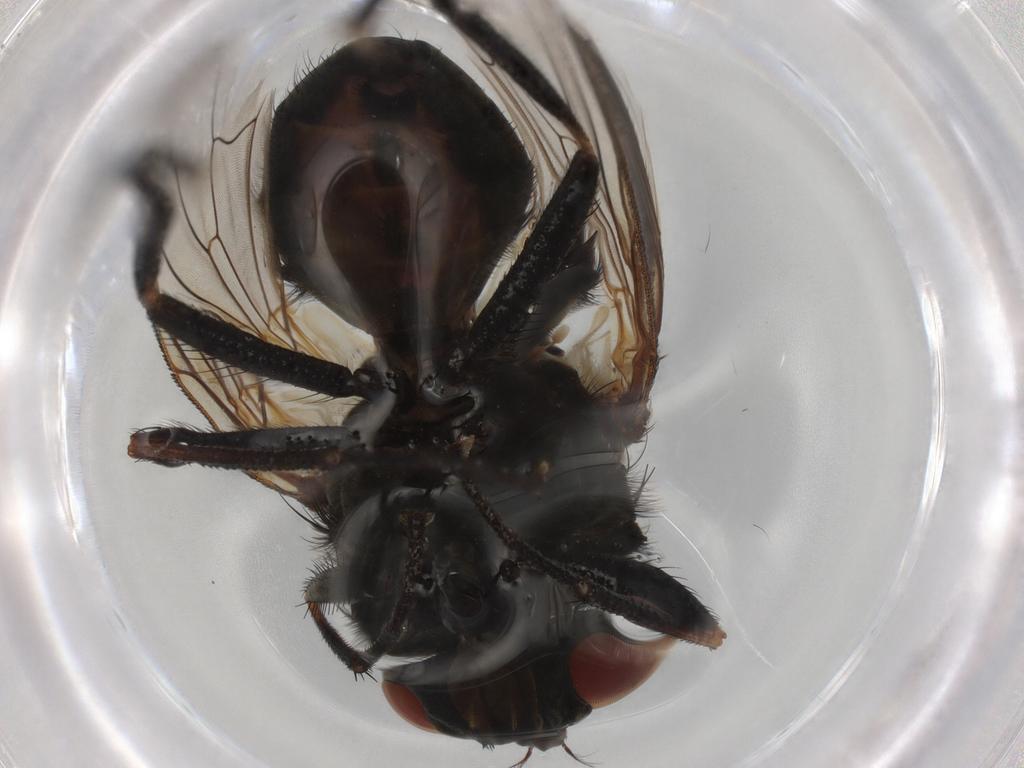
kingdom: Animalia
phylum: Arthropoda
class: Insecta
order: Diptera
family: Muscidae
